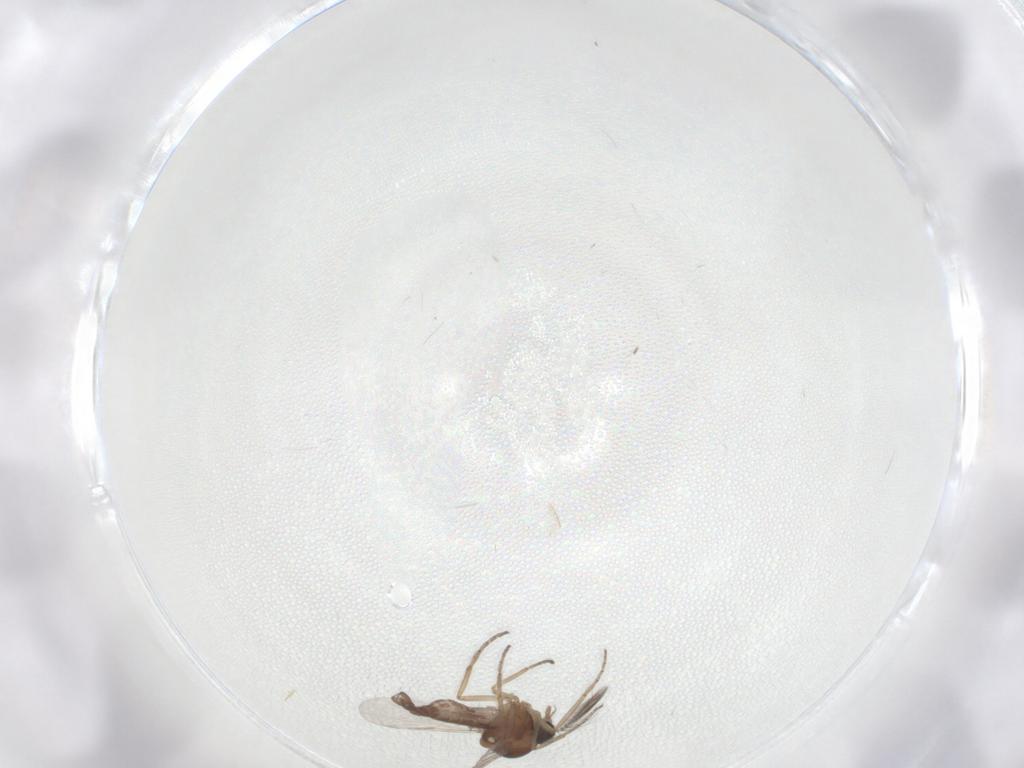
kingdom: Animalia
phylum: Arthropoda
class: Insecta
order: Diptera
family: Ceratopogonidae
